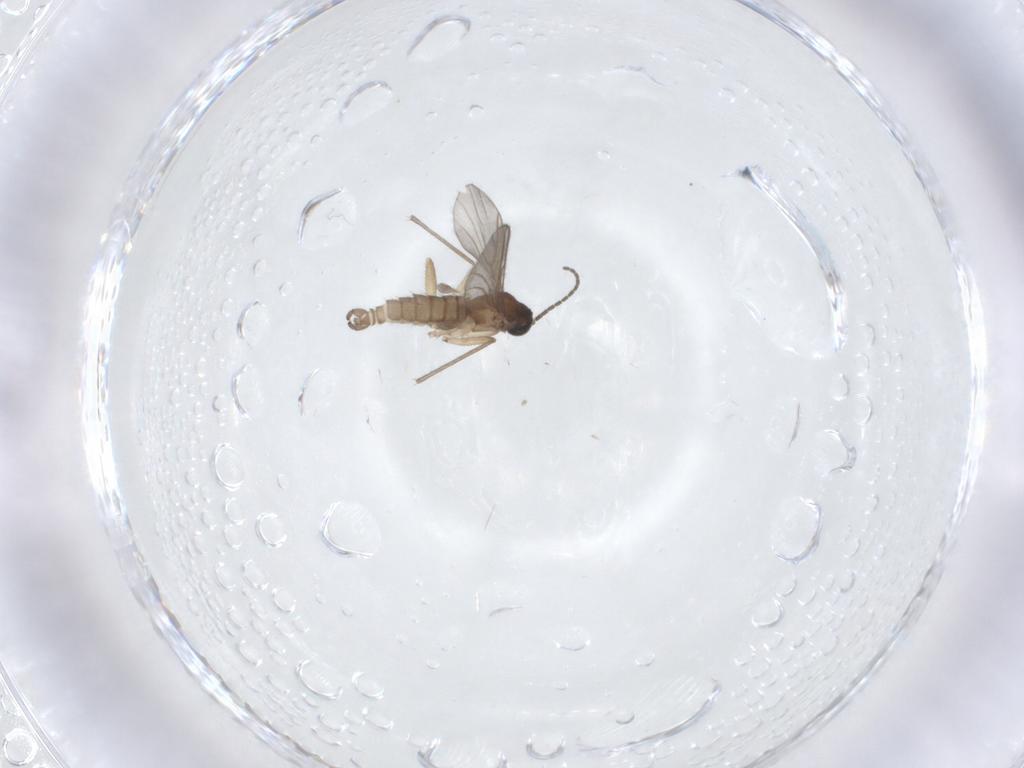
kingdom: Animalia
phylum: Arthropoda
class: Insecta
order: Diptera
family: Sciaridae
